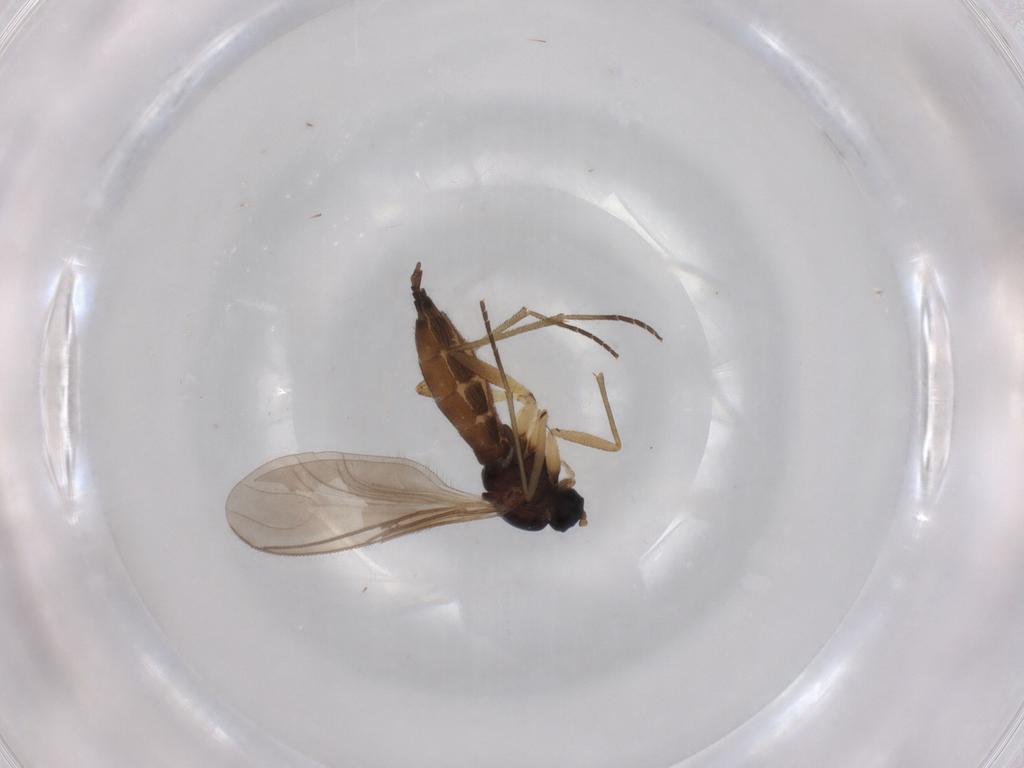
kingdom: Animalia
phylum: Arthropoda
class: Insecta
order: Diptera
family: Sciaridae
